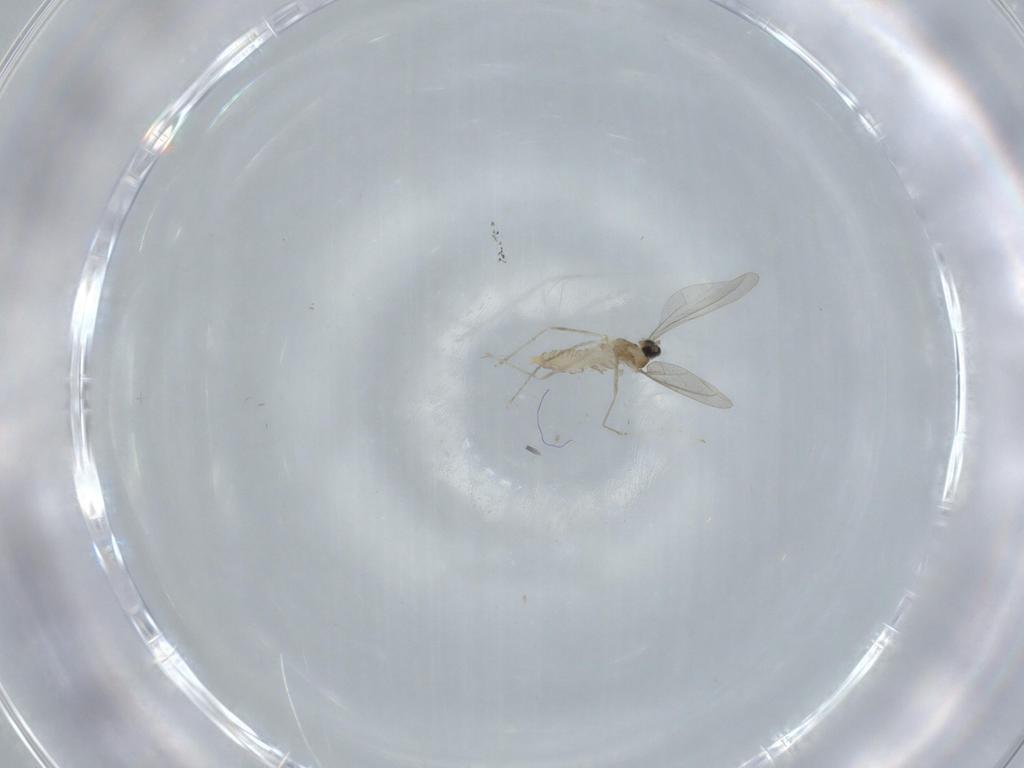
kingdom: Animalia
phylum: Arthropoda
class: Insecta
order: Diptera
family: Cecidomyiidae
